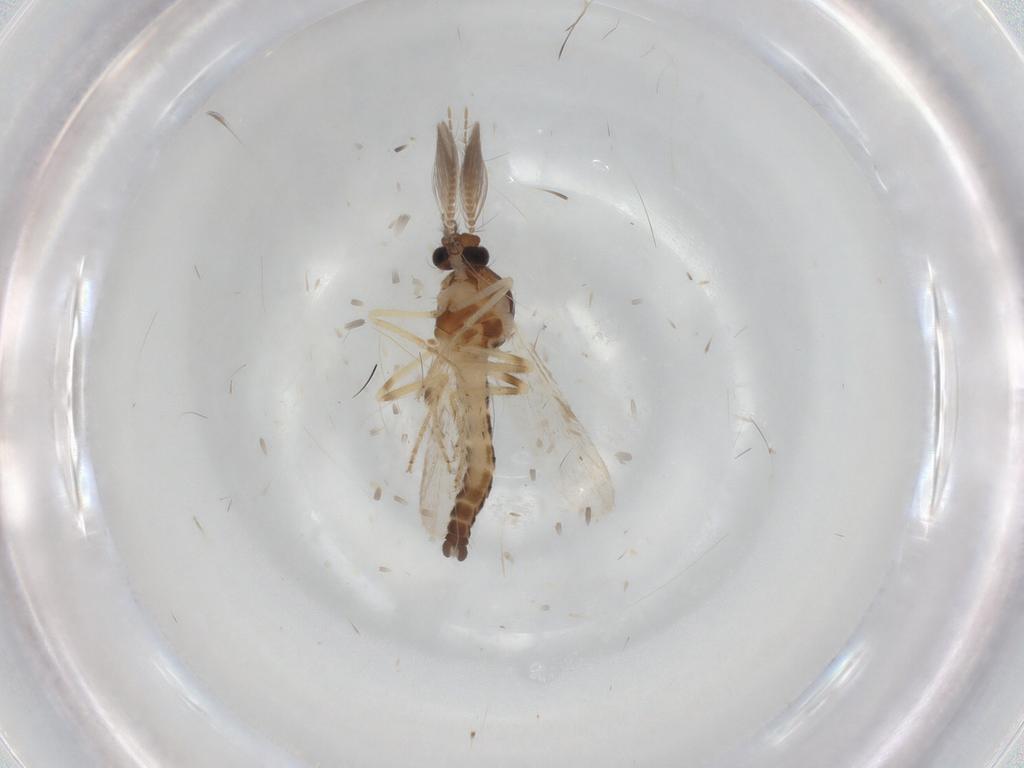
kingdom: Animalia
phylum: Arthropoda
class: Insecta
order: Diptera
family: Ceratopogonidae
